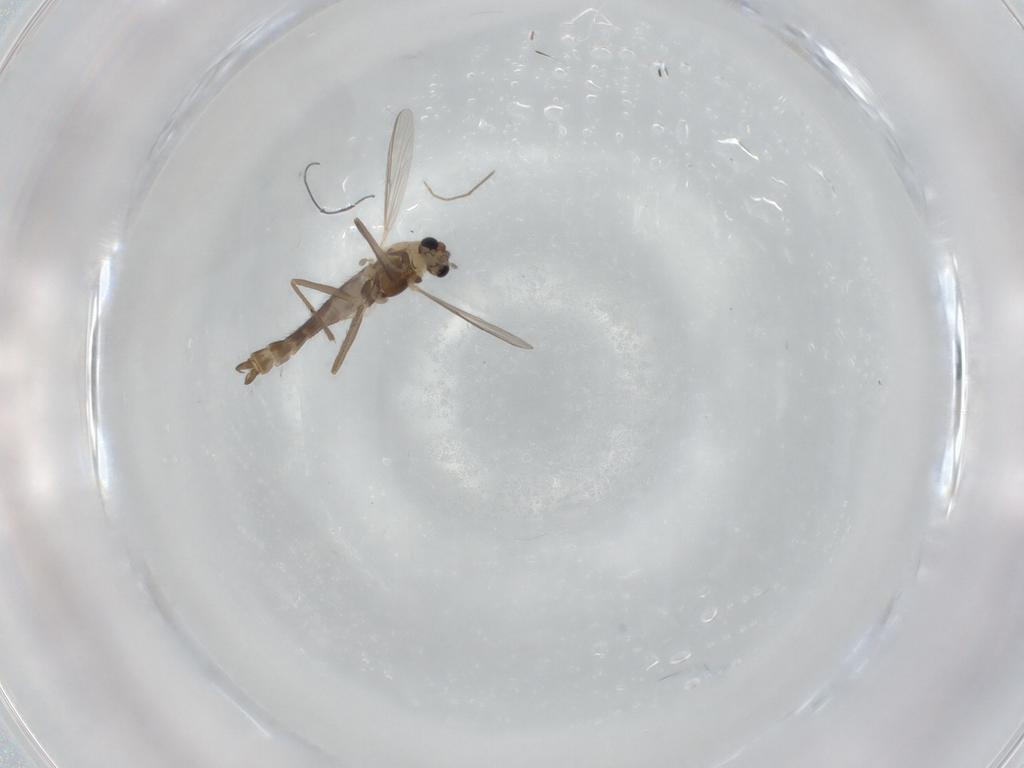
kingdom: Animalia
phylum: Arthropoda
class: Insecta
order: Diptera
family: Chironomidae
